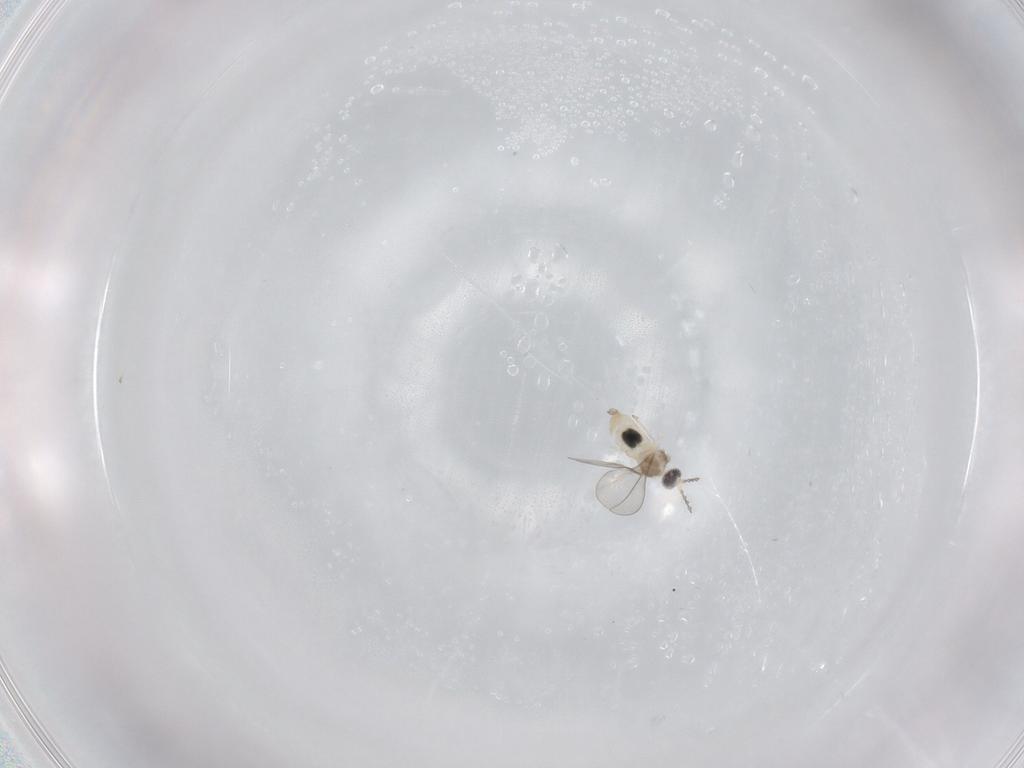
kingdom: Animalia
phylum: Arthropoda
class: Insecta
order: Diptera
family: Cecidomyiidae
